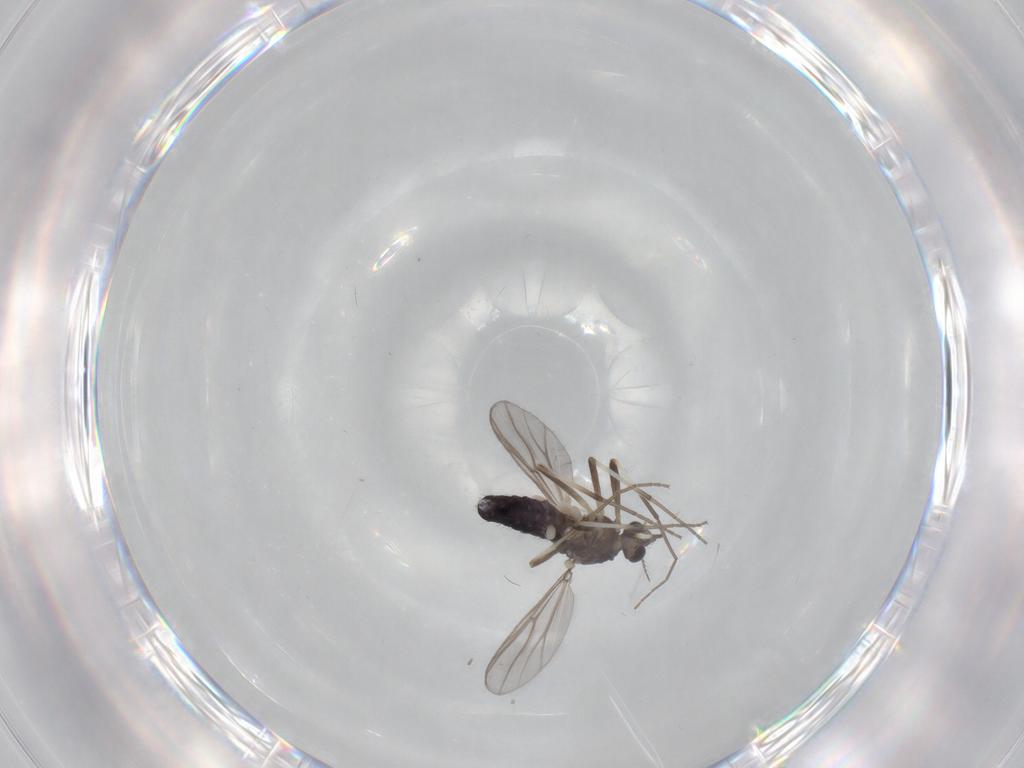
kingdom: Animalia
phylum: Arthropoda
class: Insecta
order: Diptera
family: Chironomidae
